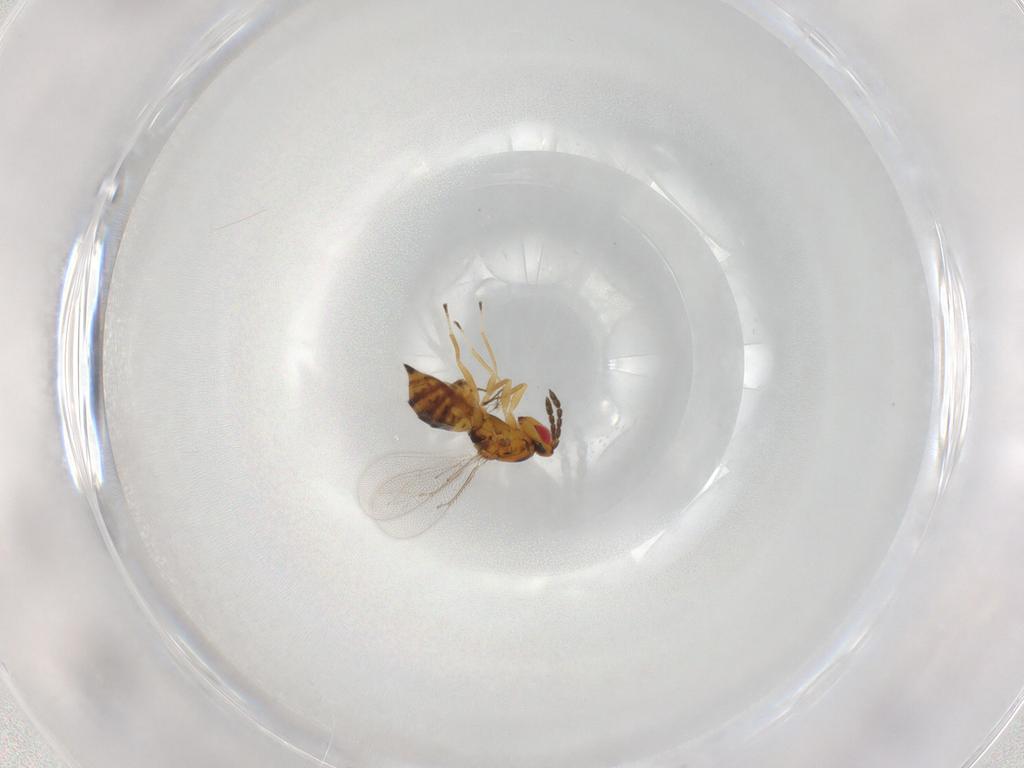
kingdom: Animalia
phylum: Arthropoda
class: Insecta
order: Hymenoptera
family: Eulophidae
